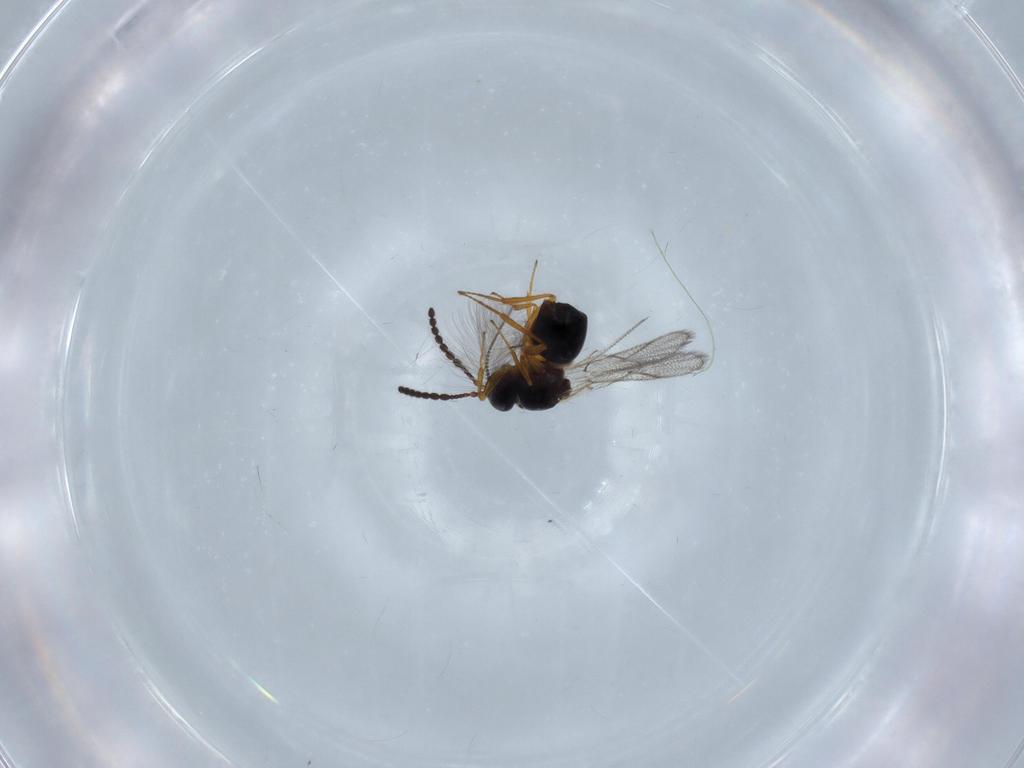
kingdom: Animalia
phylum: Arthropoda
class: Insecta
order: Hymenoptera
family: Figitidae
